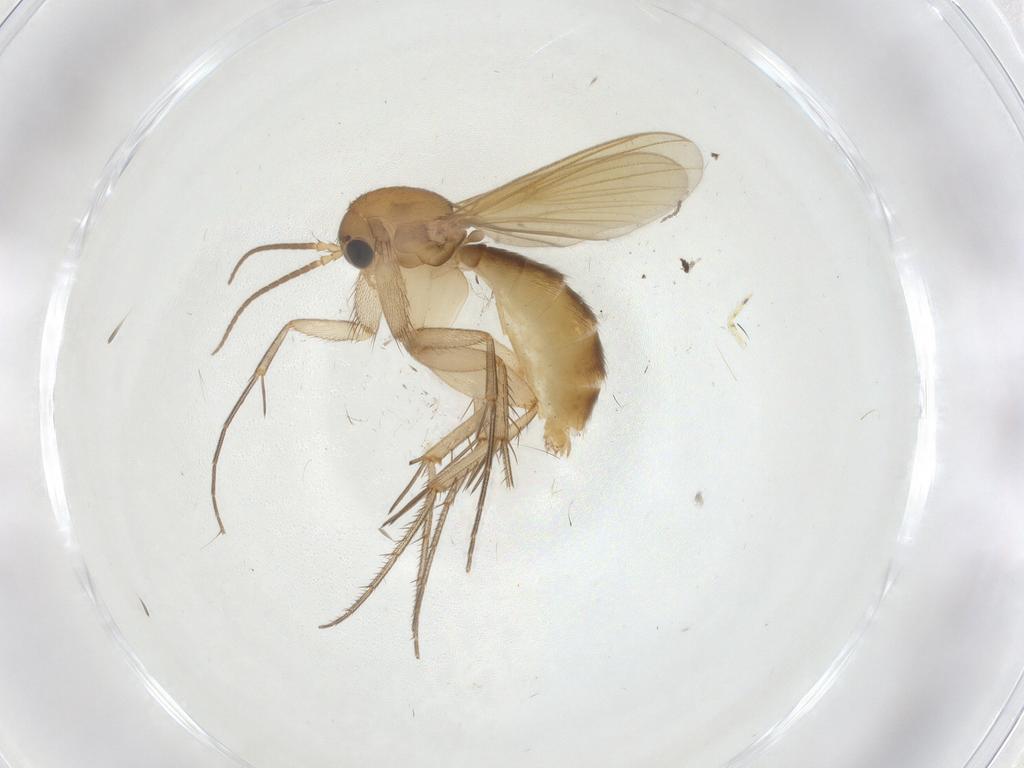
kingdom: Animalia
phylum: Arthropoda
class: Insecta
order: Diptera
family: Mycetophilidae
